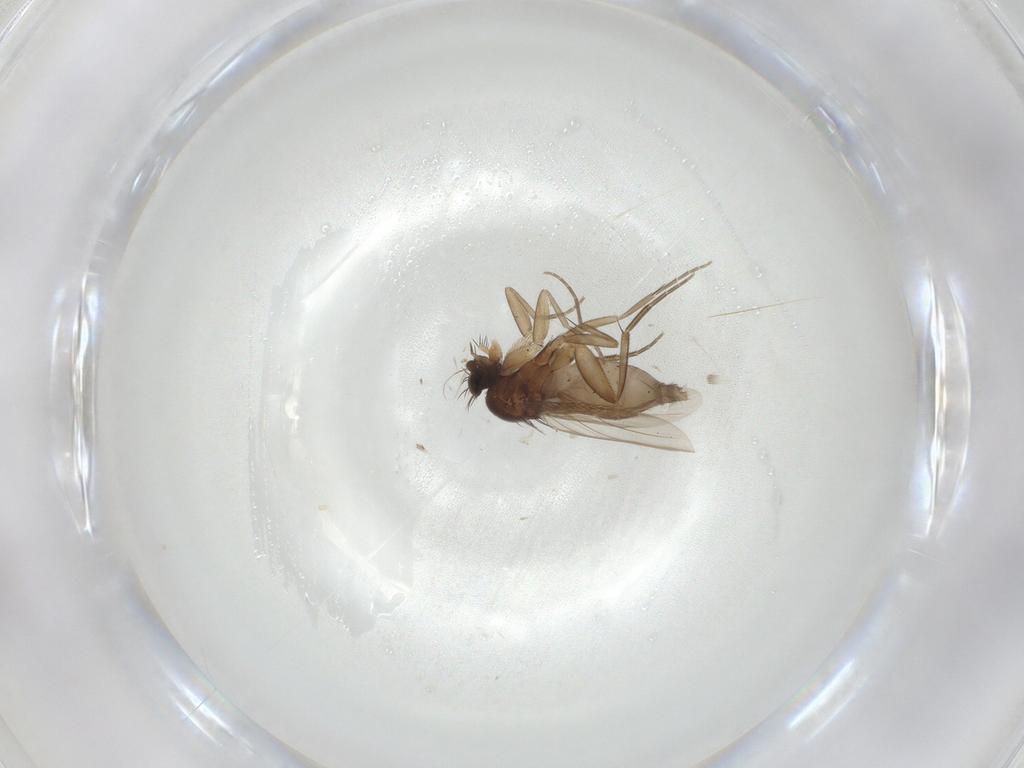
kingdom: Animalia
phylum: Arthropoda
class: Insecta
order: Diptera
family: Phoridae
